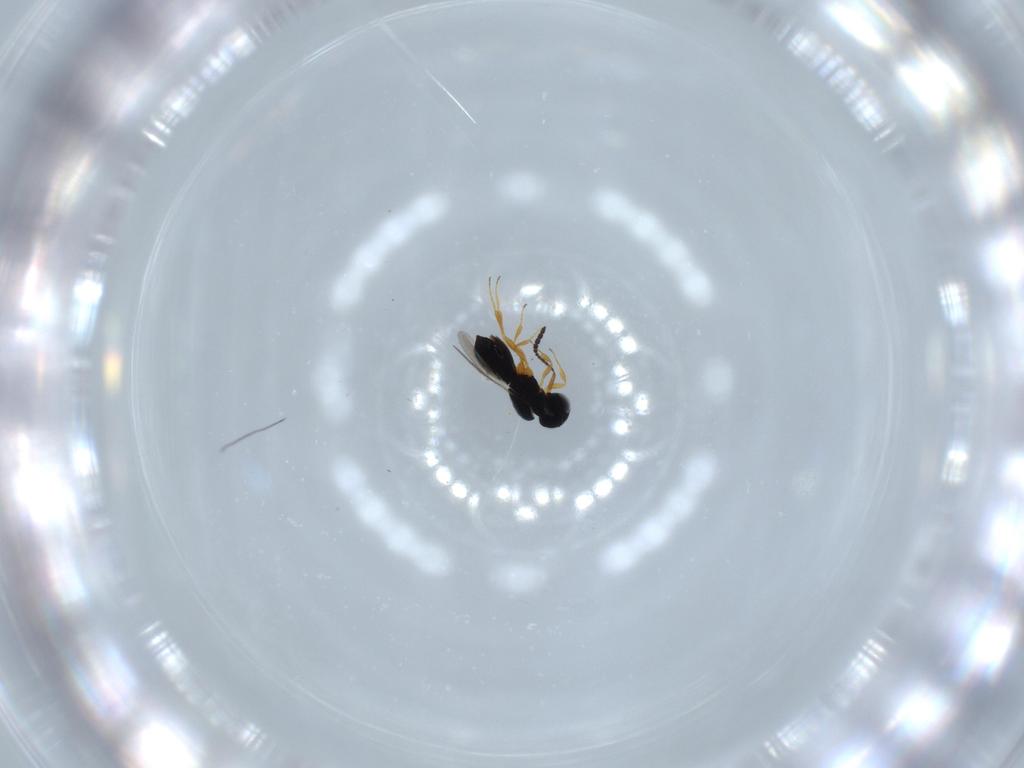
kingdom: Animalia
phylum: Arthropoda
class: Insecta
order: Hymenoptera
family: Scelionidae
